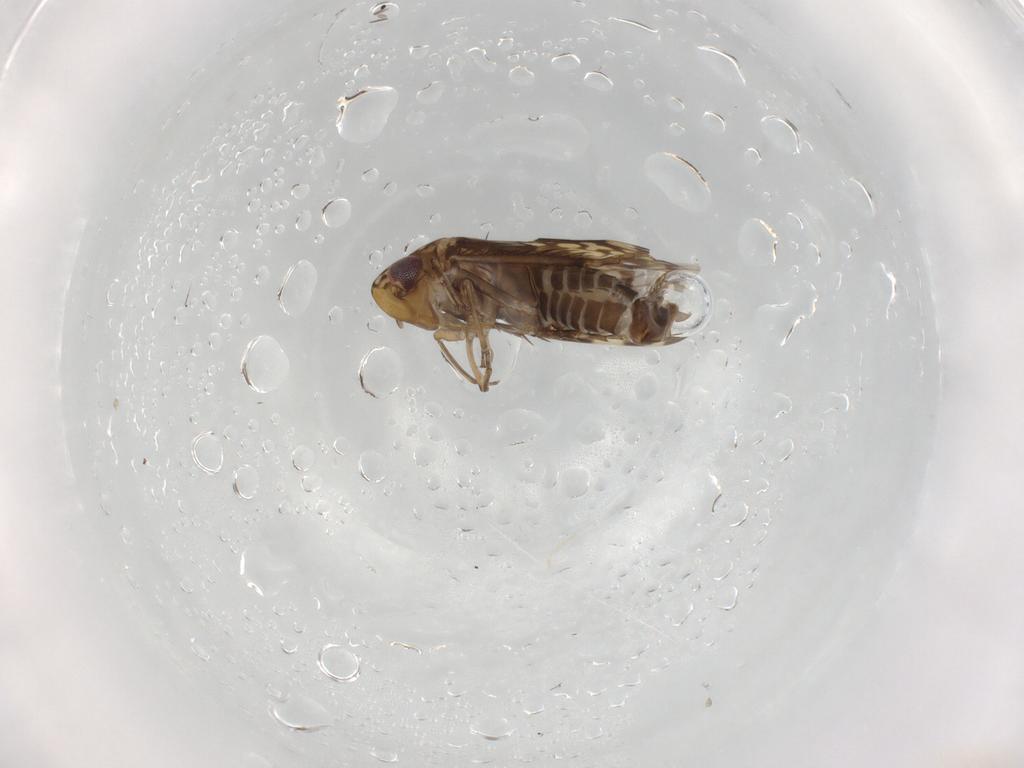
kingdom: Animalia
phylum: Arthropoda
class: Insecta
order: Hemiptera
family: Cicadellidae
